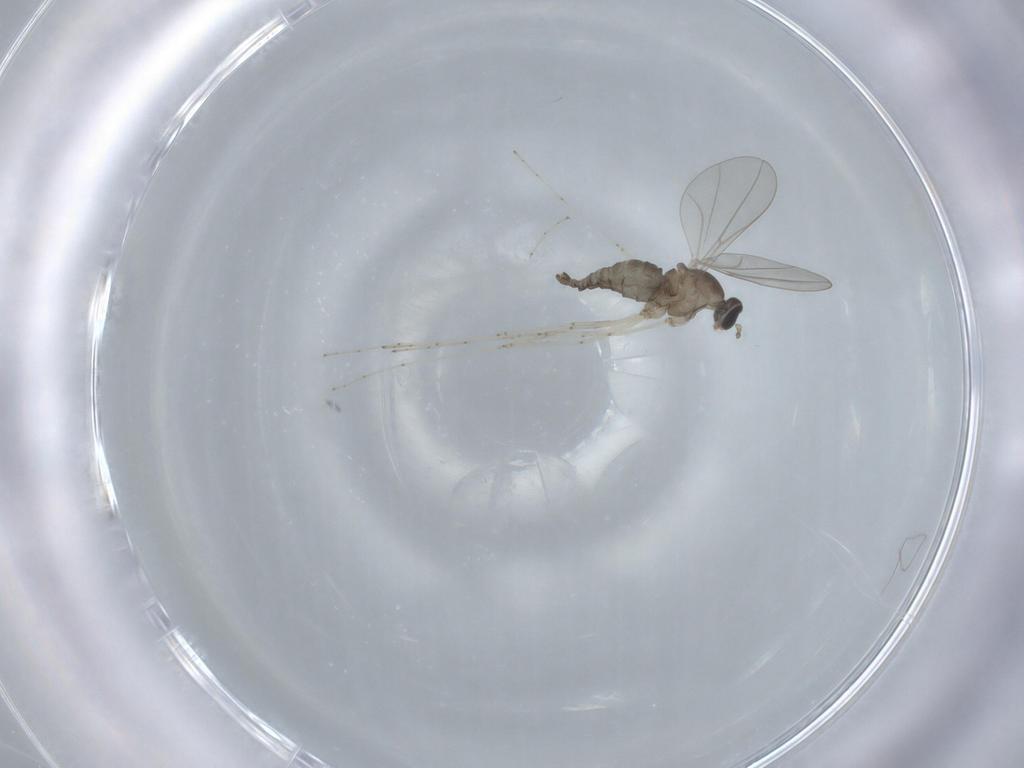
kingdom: Animalia
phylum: Arthropoda
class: Insecta
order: Diptera
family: Cecidomyiidae
